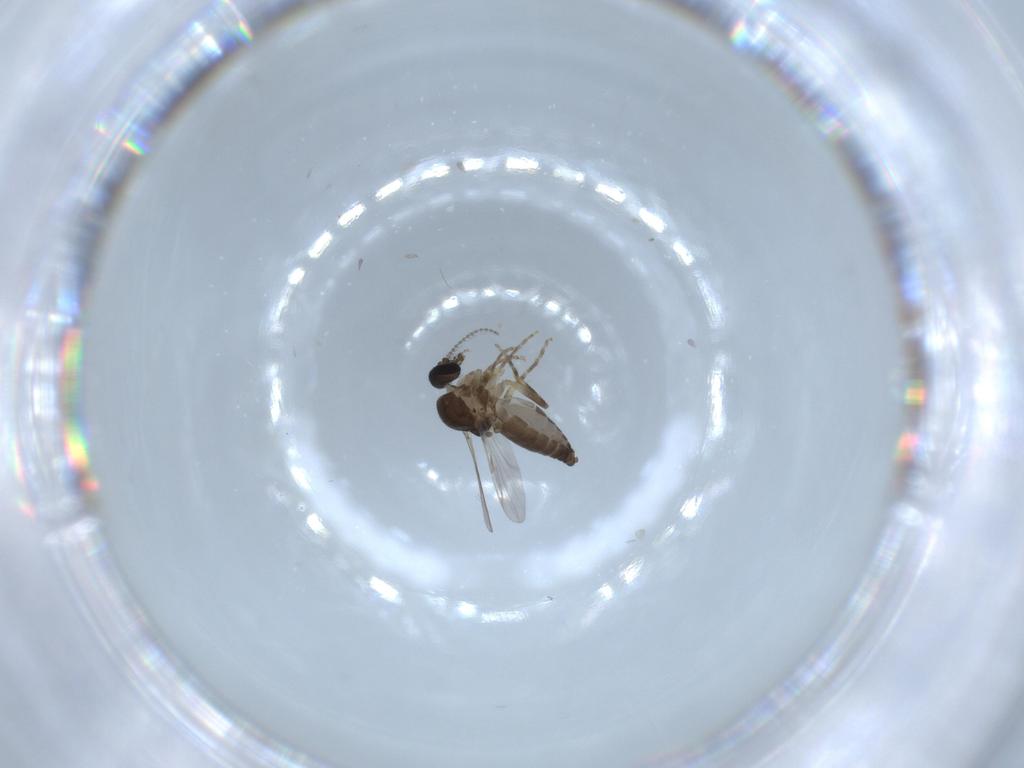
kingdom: Animalia
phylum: Arthropoda
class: Insecta
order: Diptera
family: Ceratopogonidae
